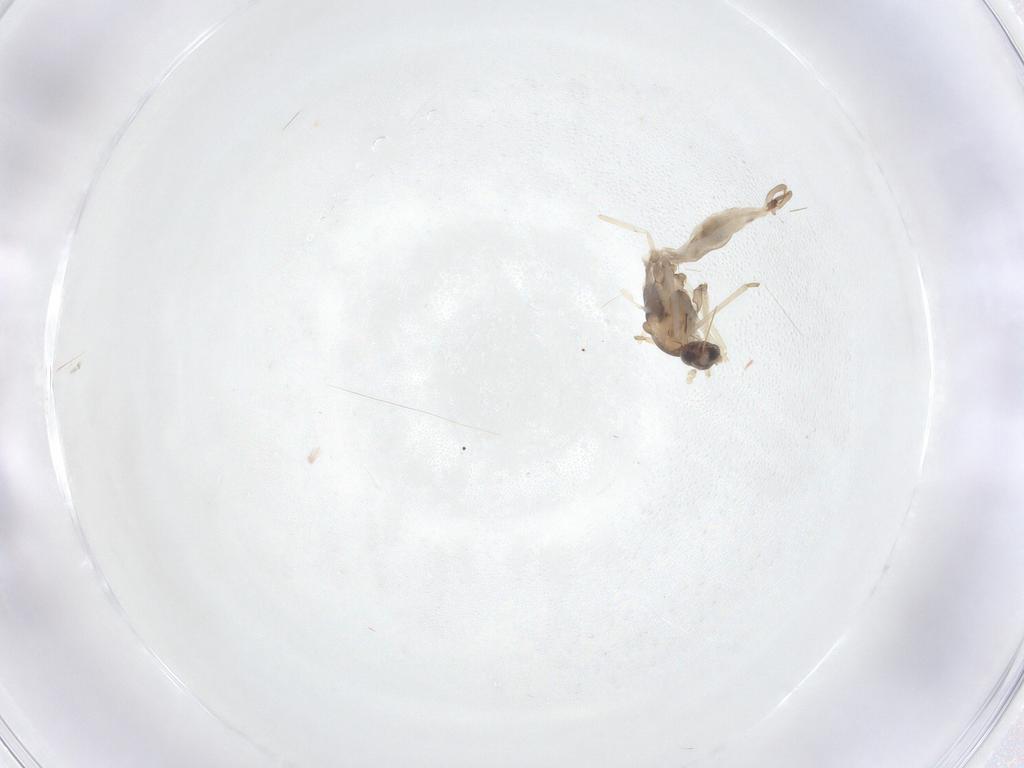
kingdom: Animalia
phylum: Arthropoda
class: Insecta
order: Diptera
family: Cecidomyiidae
